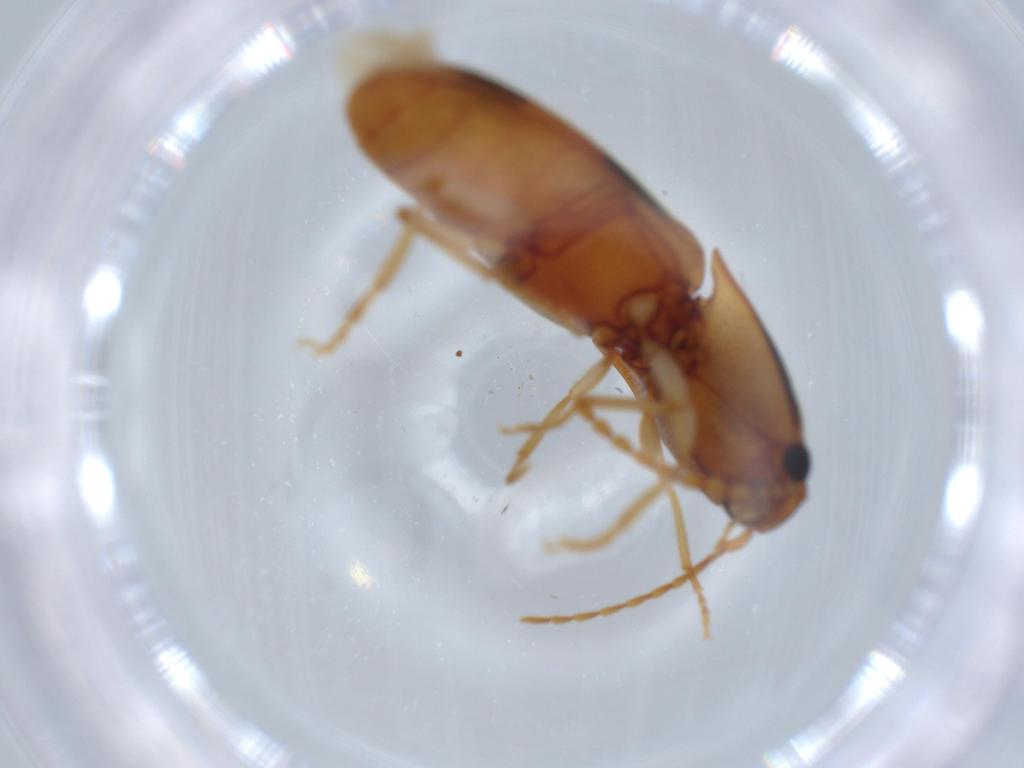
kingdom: Animalia
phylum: Arthropoda
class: Insecta
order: Coleoptera
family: Elateridae
